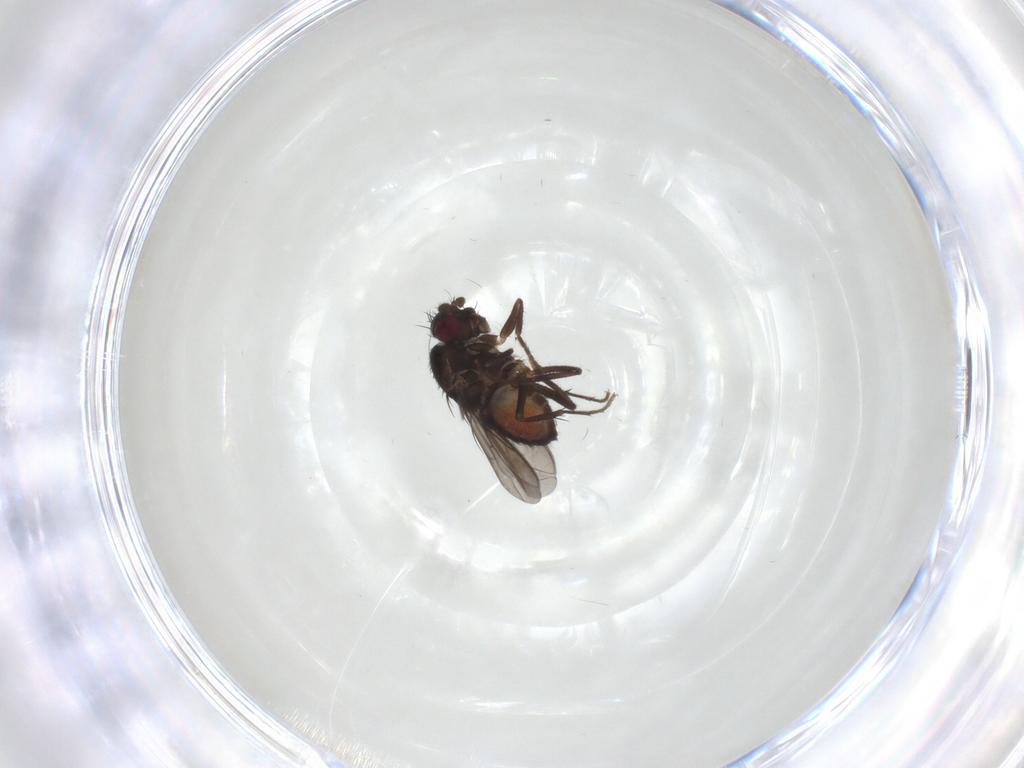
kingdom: Animalia
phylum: Arthropoda
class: Insecta
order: Diptera
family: Sphaeroceridae
